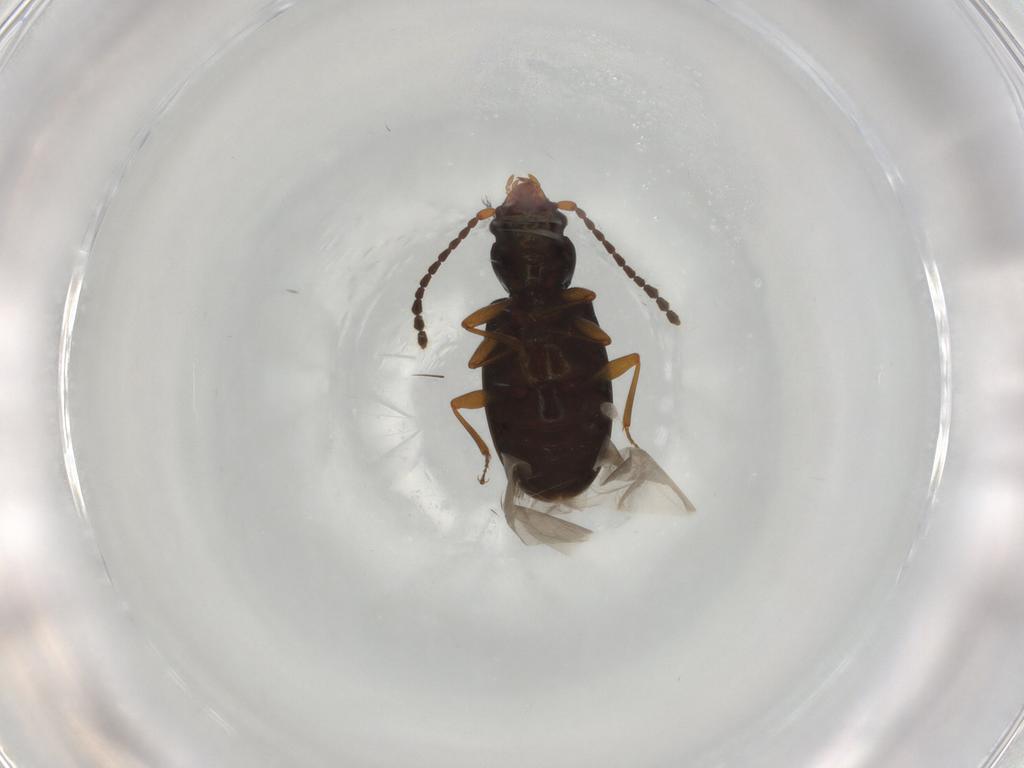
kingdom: Animalia
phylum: Arthropoda
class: Insecta
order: Coleoptera
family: Laemophloeidae
